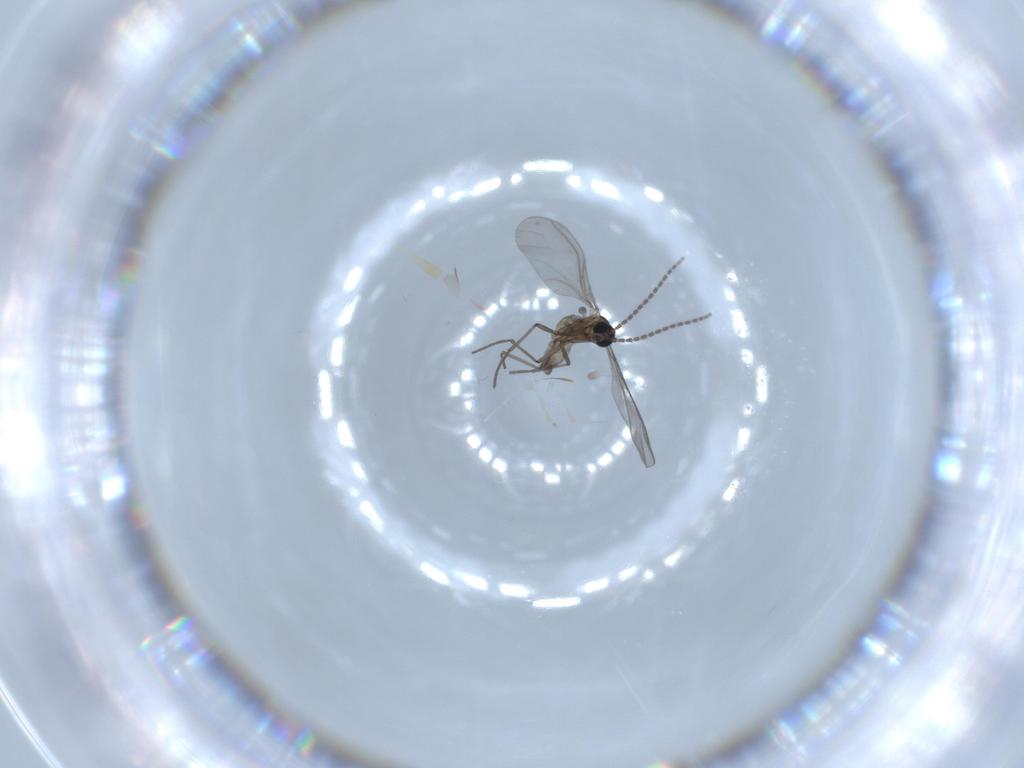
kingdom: Animalia
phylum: Arthropoda
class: Insecta
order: Diptera
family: Sciaridae
